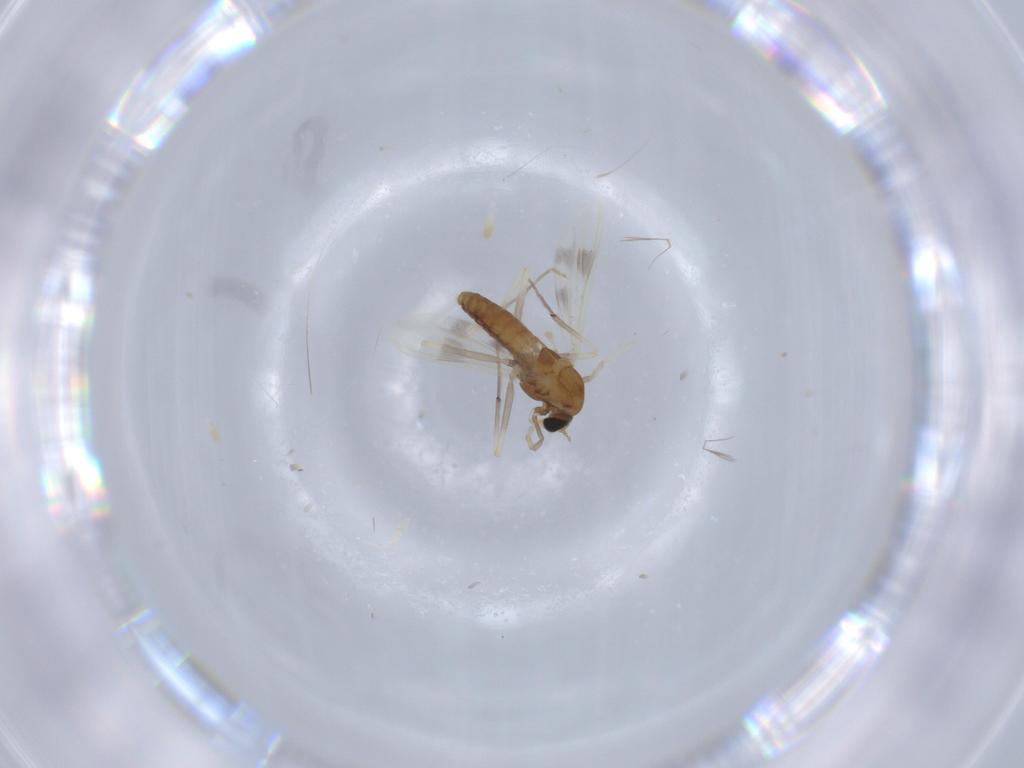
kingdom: Animalia
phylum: Arthropoda
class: Insecta
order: Diptera
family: Chironomidae
